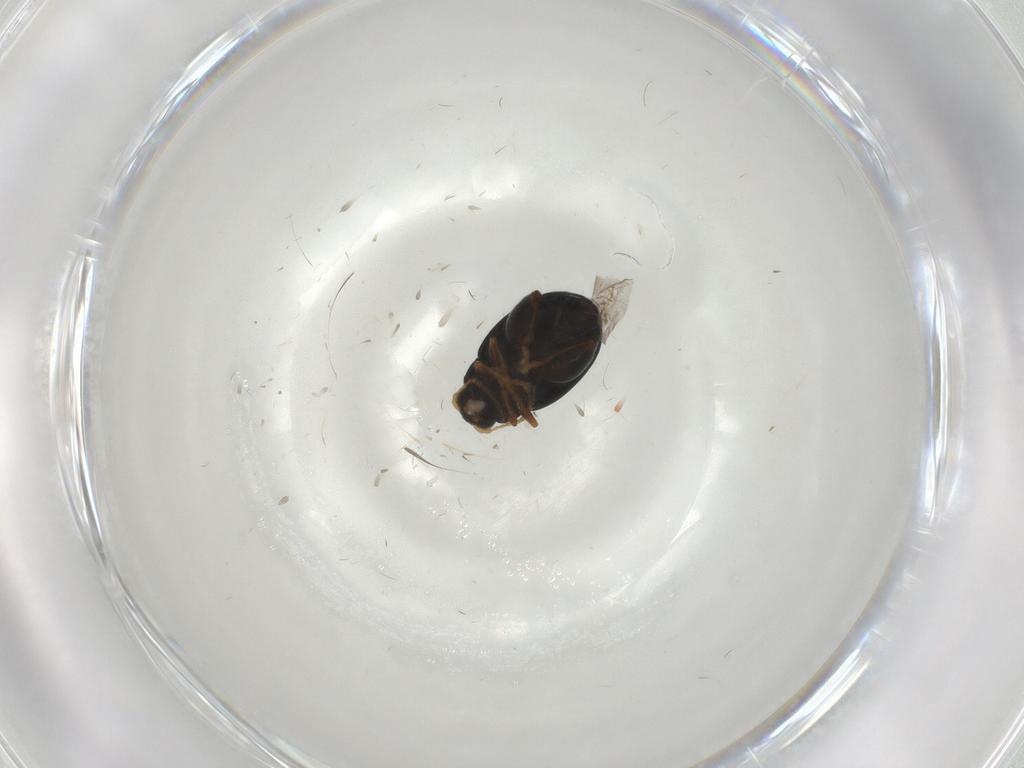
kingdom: Animalia
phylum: Arthropoda
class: Insecta
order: Coleoptera
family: Chrysomelidae
